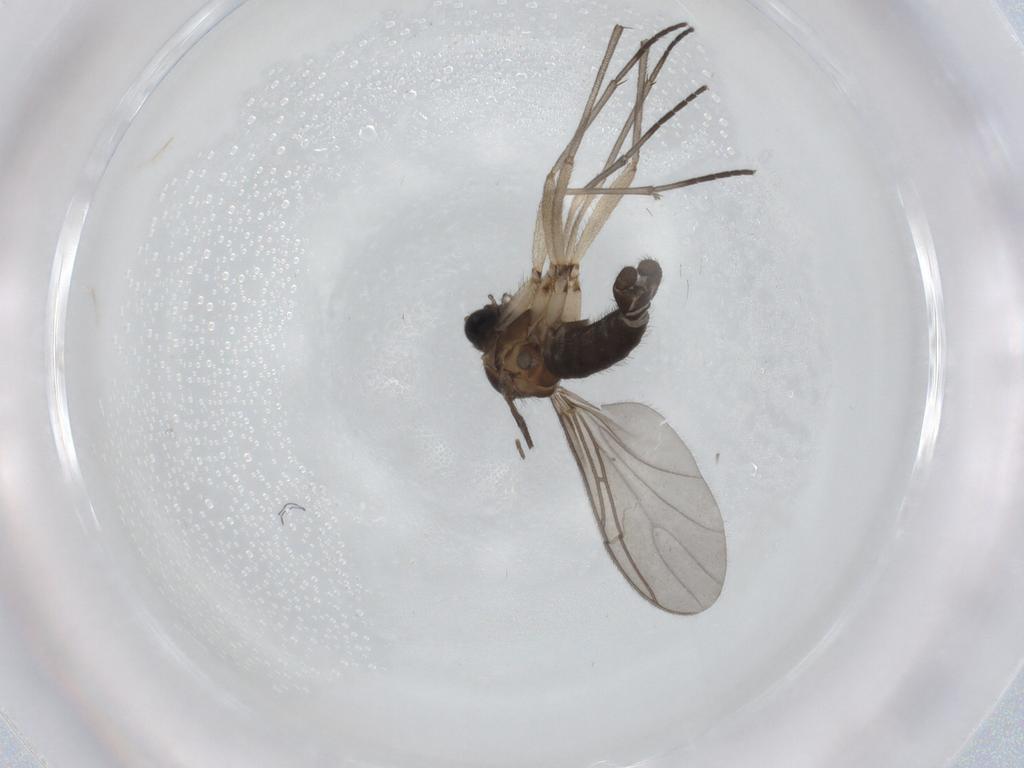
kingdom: Animalia
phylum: Arthropoda
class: Insecta
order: Diptera
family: Sciaridae
